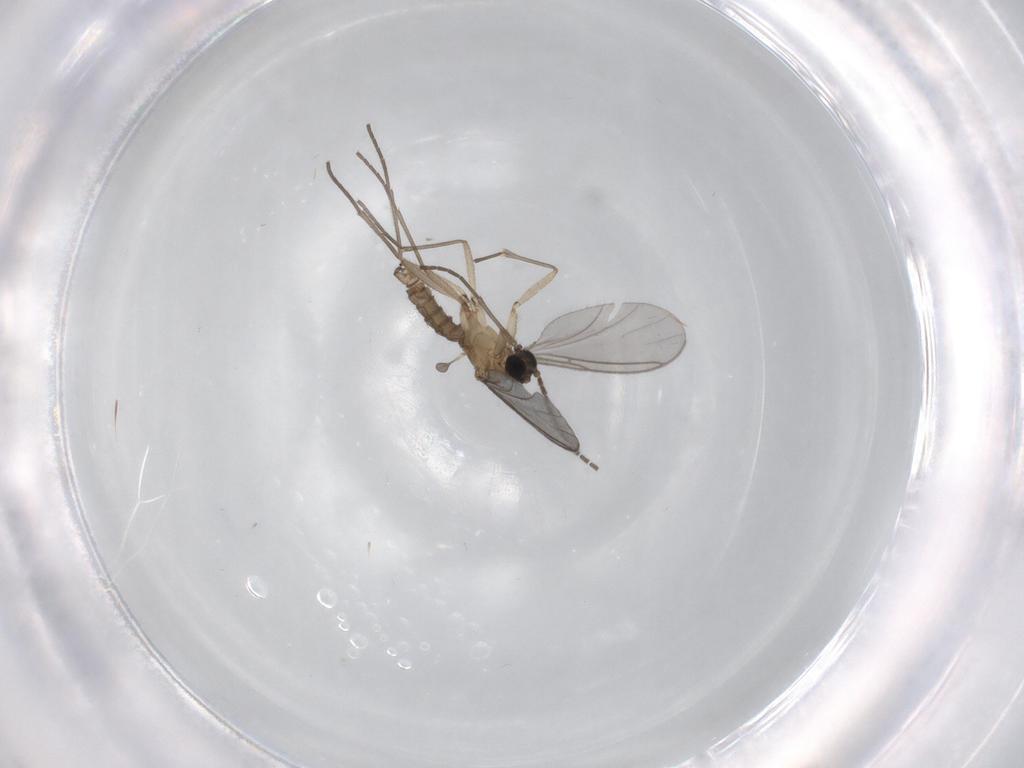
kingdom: Animalia
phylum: Arthropoda
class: Insecta
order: Diptera
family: Sciaridae
